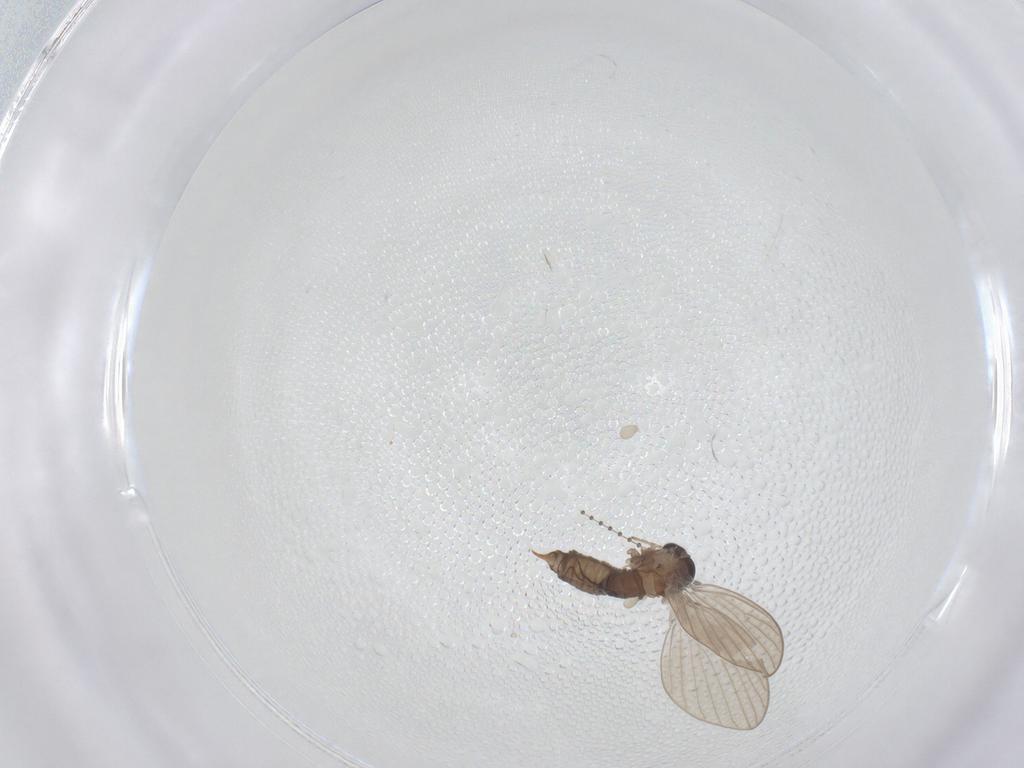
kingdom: Animalia
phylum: Arthropoda
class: Insecta
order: Diptera
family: Psychodidae
